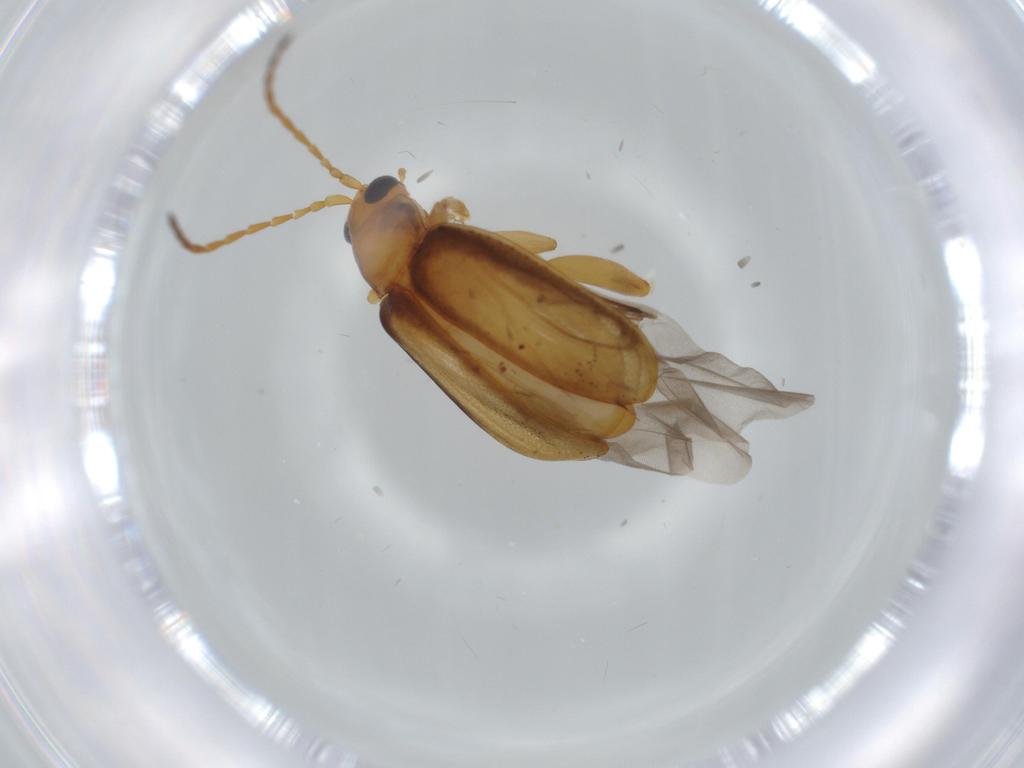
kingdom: Animalia
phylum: Arthropoda
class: Insecta
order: Coleoptera
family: Chrysomelidae
